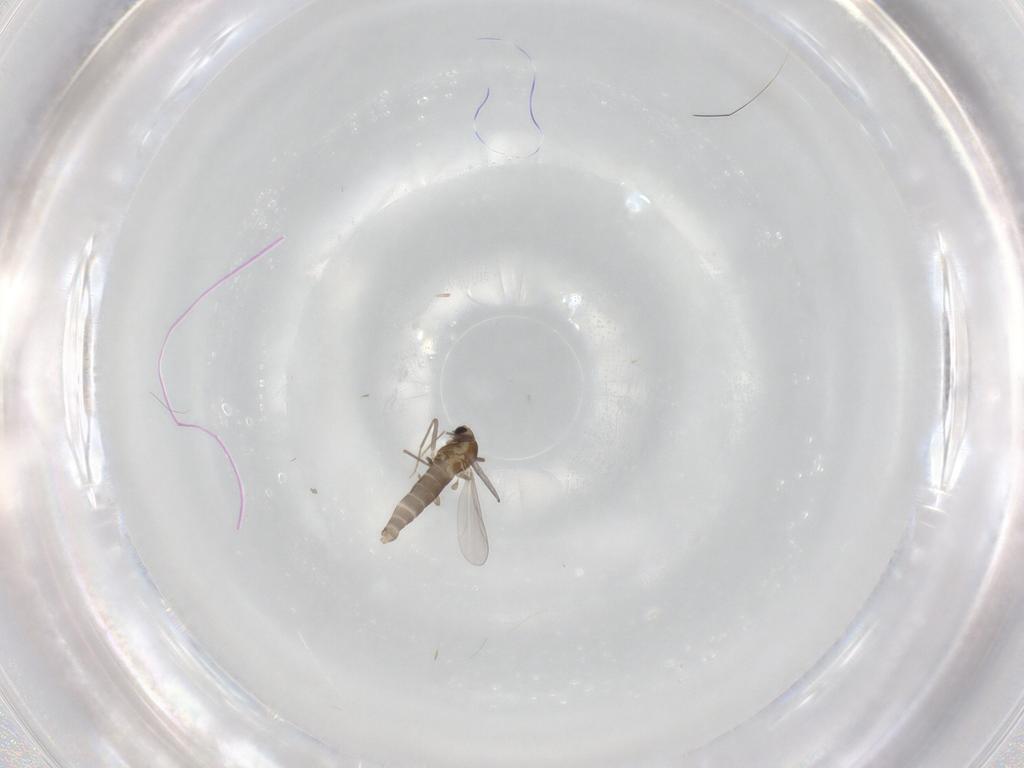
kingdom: Animalia
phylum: Arthropoda
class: Insecta
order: Diptera
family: Chironomidae
